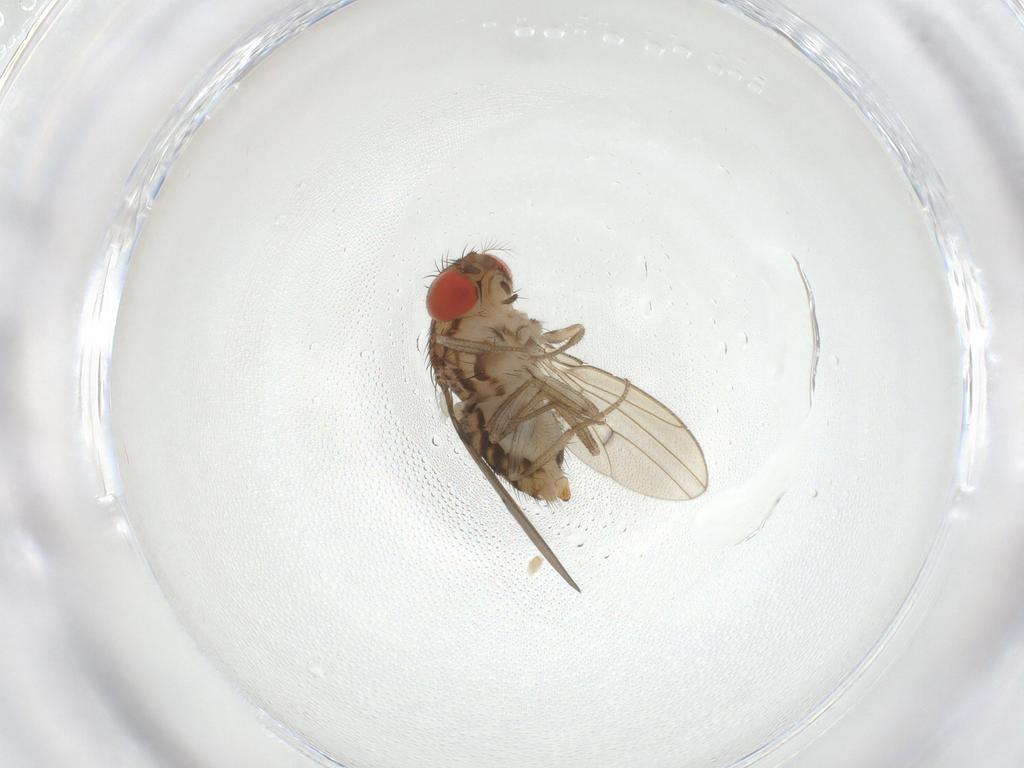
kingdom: Animalia
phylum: Arthropoda
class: Insecta
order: Diptera
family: Drosophilidae
